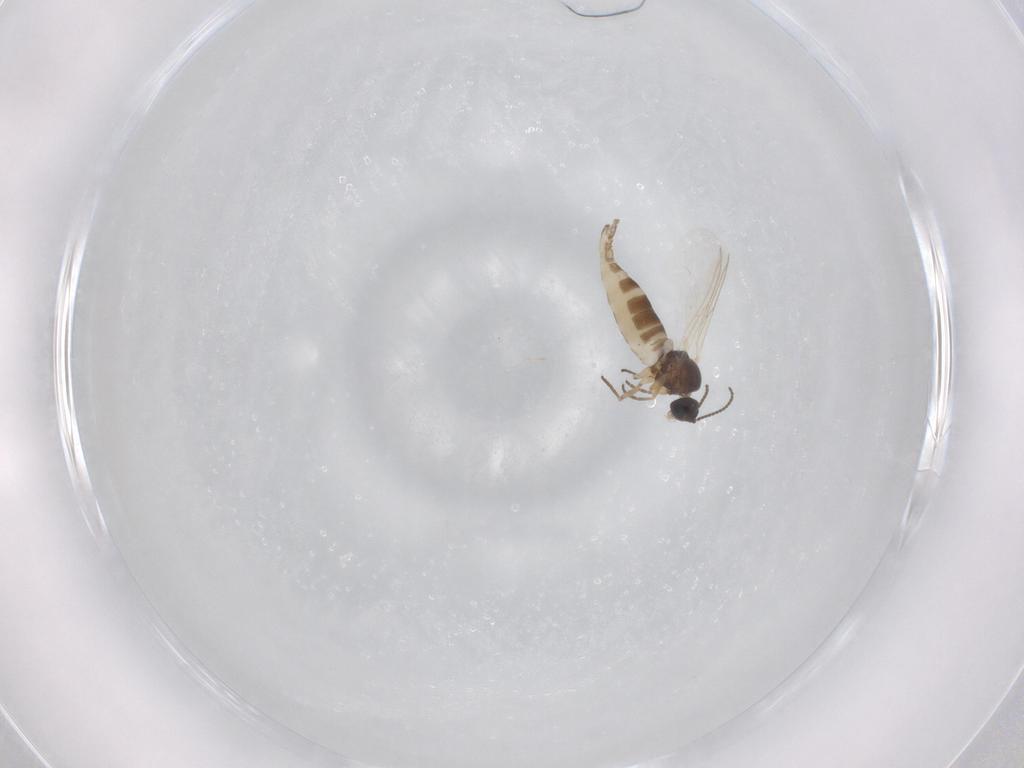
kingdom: Animalia
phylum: Arthropoda
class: Insecta
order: Diptera
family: Sciaridae
